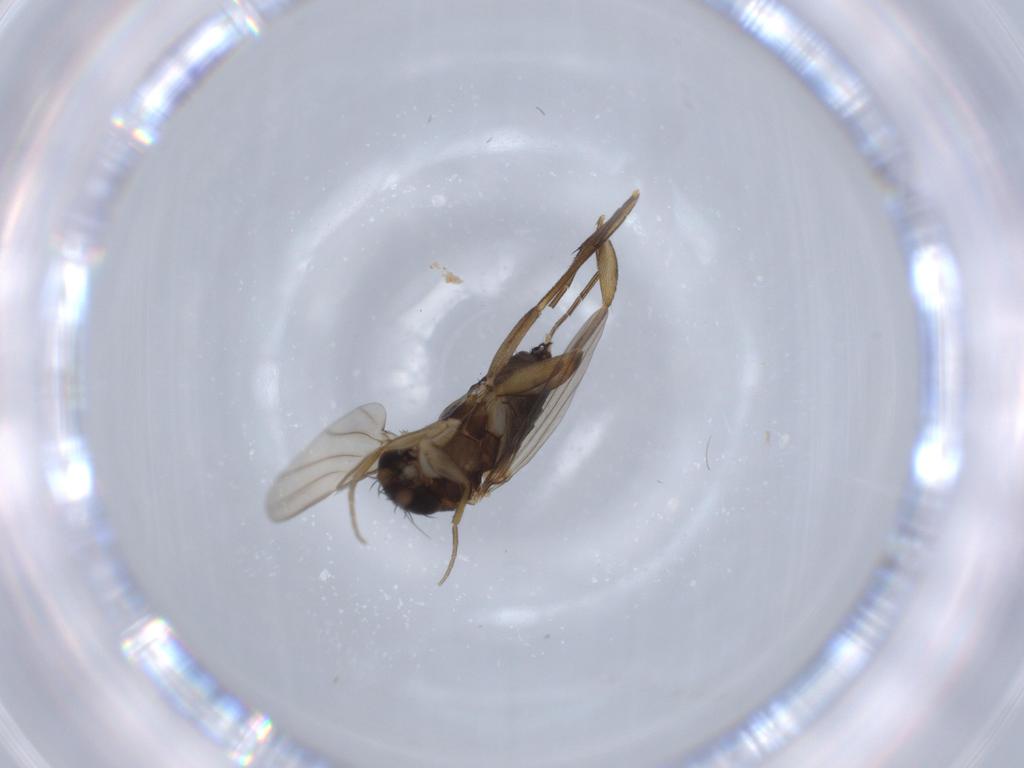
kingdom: Animalia
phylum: Arthropoda
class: Insecta
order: Diptera
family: Phoridae
